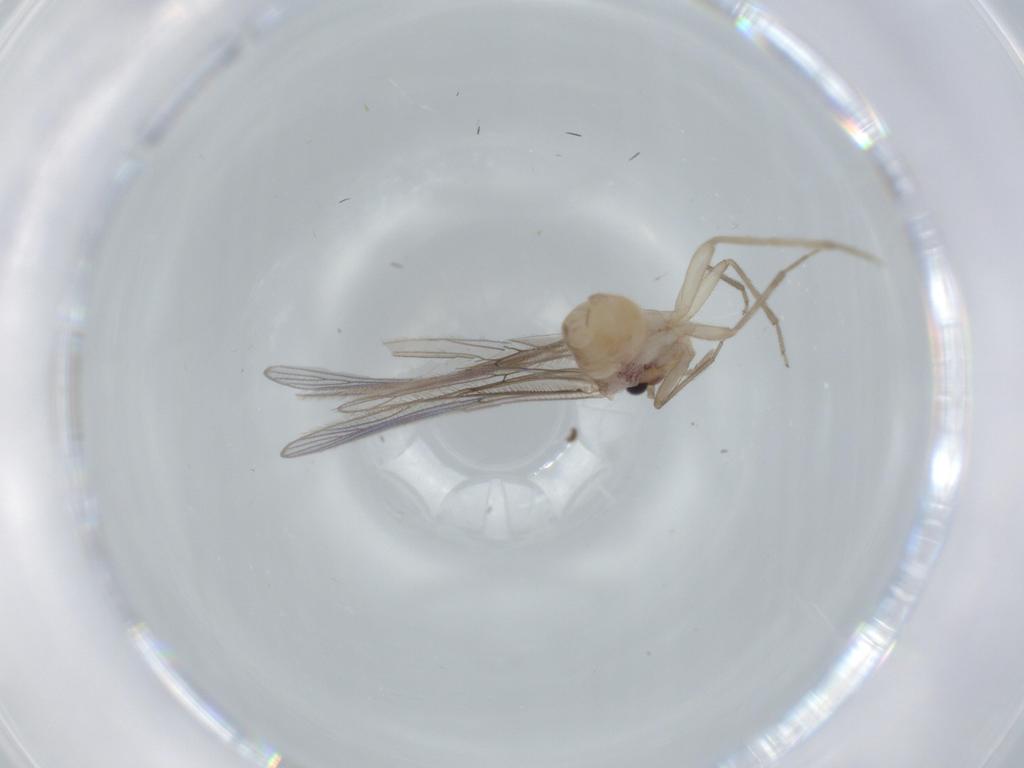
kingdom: Animalia
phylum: Arthropoda
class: Insecta
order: Psocodea
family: Cladiopsocidae
